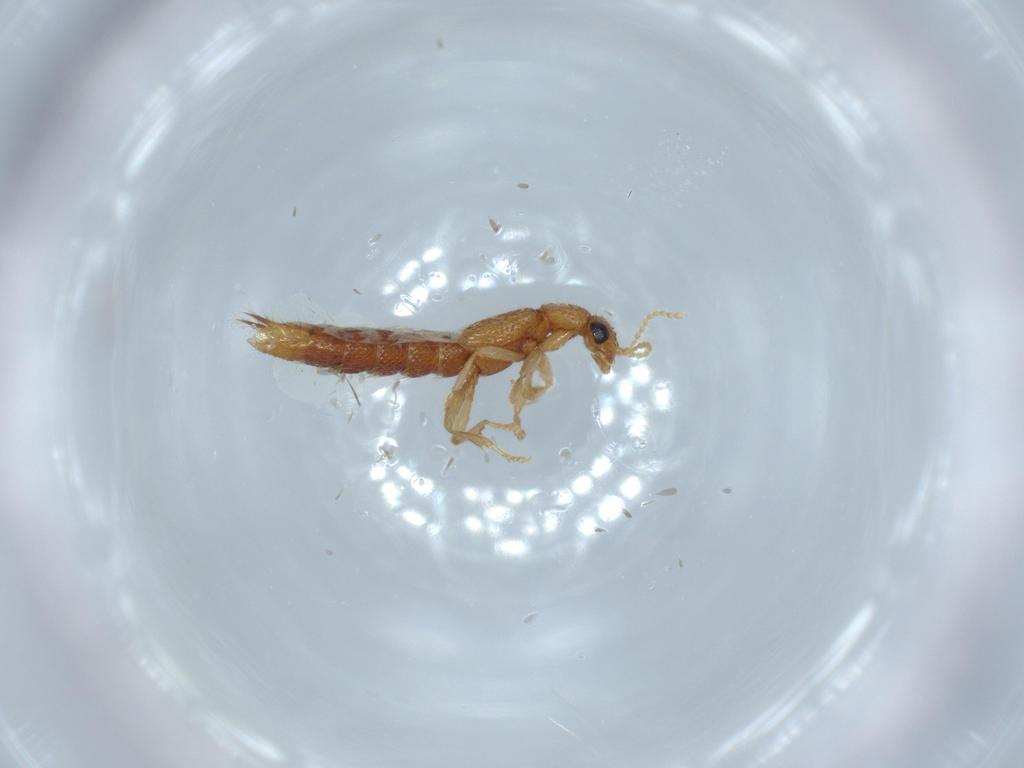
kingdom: Animalia
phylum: Arthropoda
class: Insecta
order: Coleoptera
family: Staphylinidae
